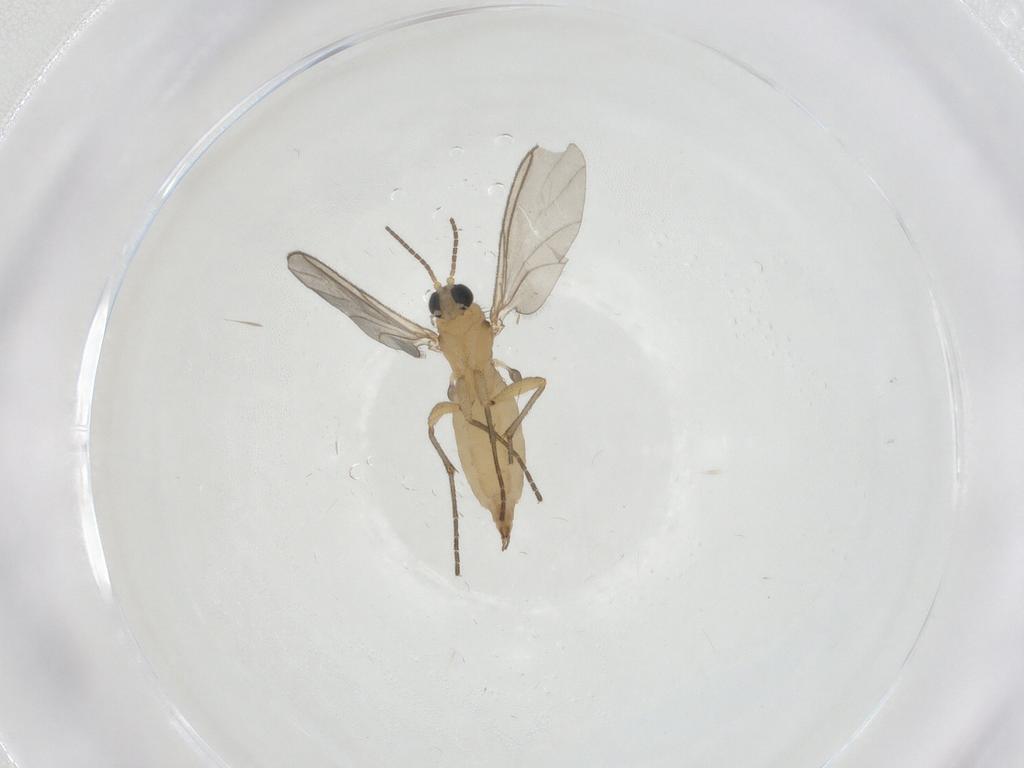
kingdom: Animalia
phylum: Arthropoda
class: Insecta
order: Diptera
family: Sciaridae
